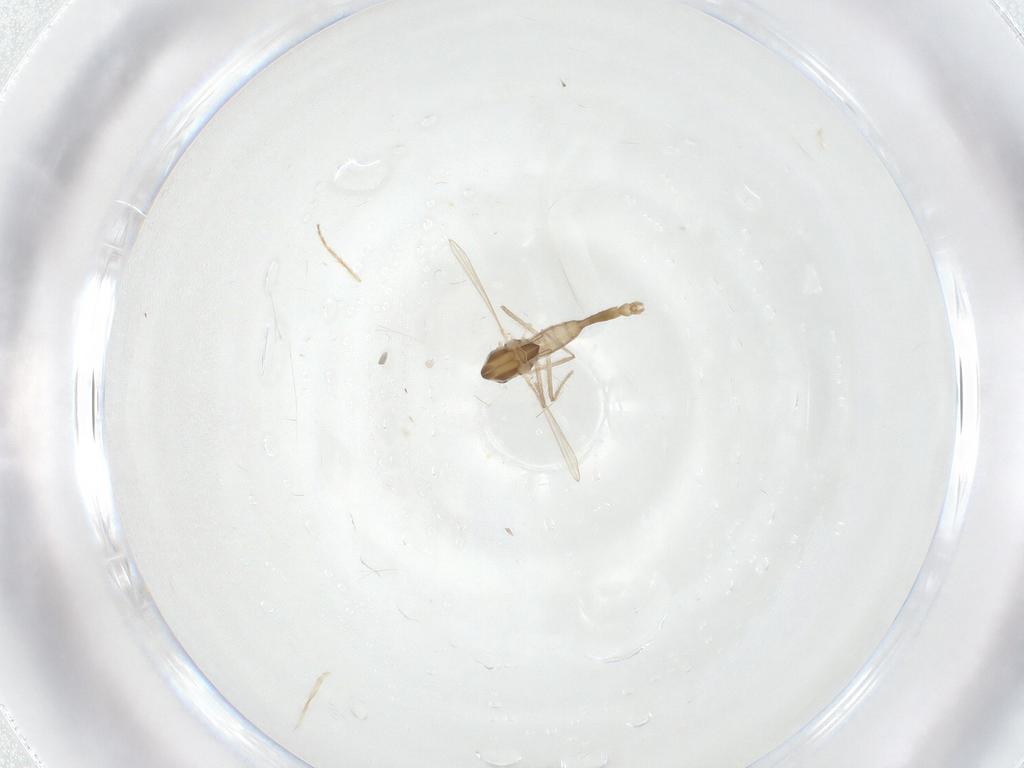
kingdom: Animalia
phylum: Arthropoda
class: Insecta
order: Diptera
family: Chironomidae
